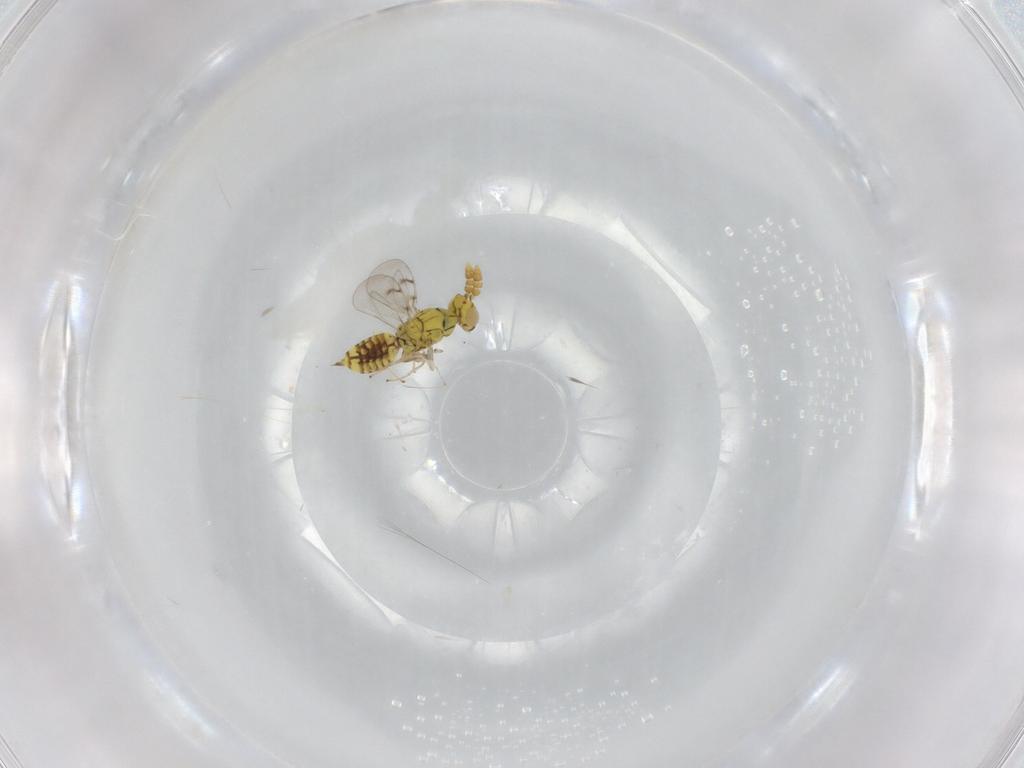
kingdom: Animalia
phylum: Arthropoda
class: Insecta
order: Hymenoptera
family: Eulophidae
